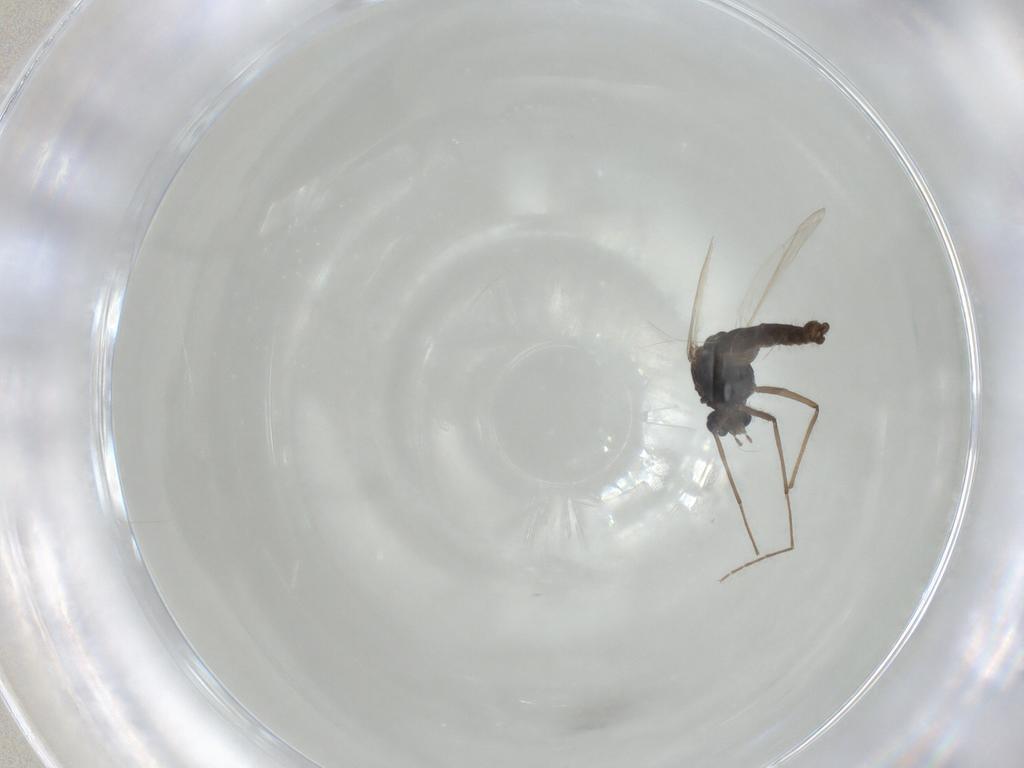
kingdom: Animalia
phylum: Arthropoda
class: Insecta
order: Diptera
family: Chironomidae
